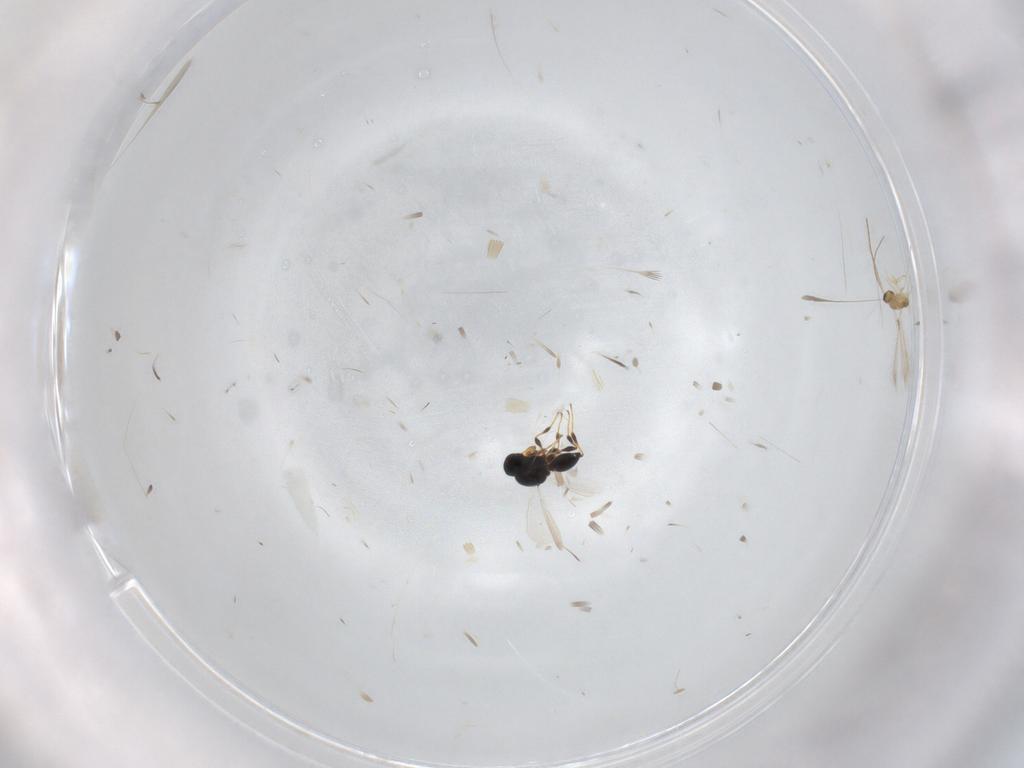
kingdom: Animalia
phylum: Arthropoda
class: Insecta
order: Hymenoptera
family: Platygastridae
